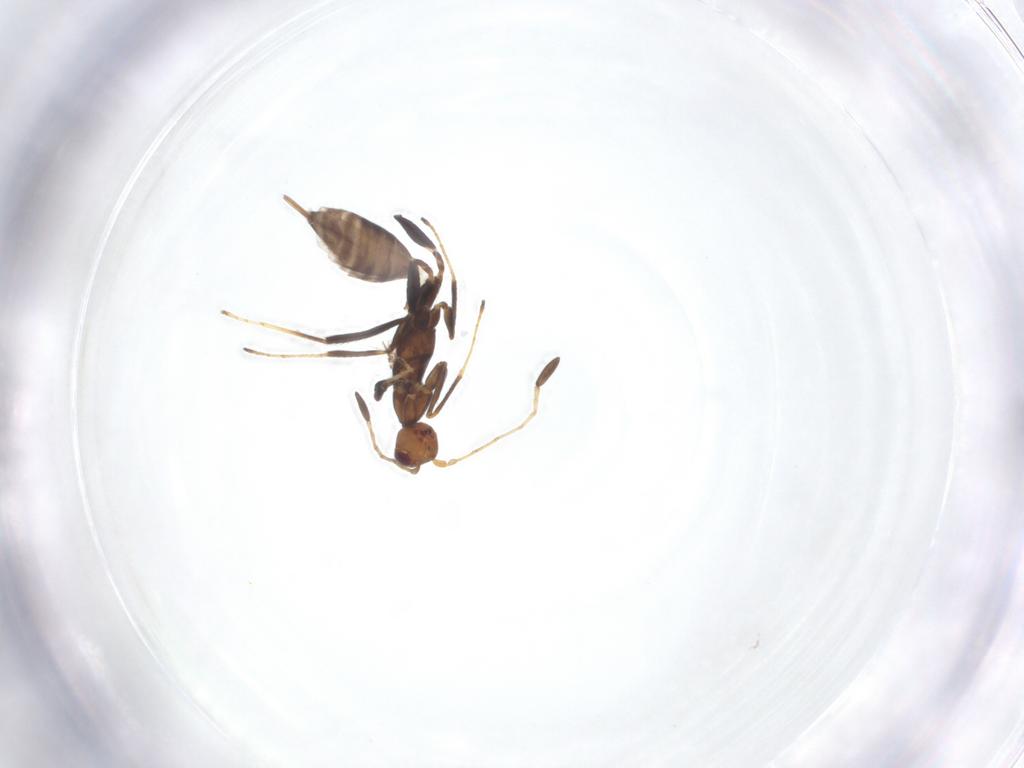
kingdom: Animalia
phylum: Arthropoda
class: Insecta
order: Hymenoptera
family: Mymaridae
